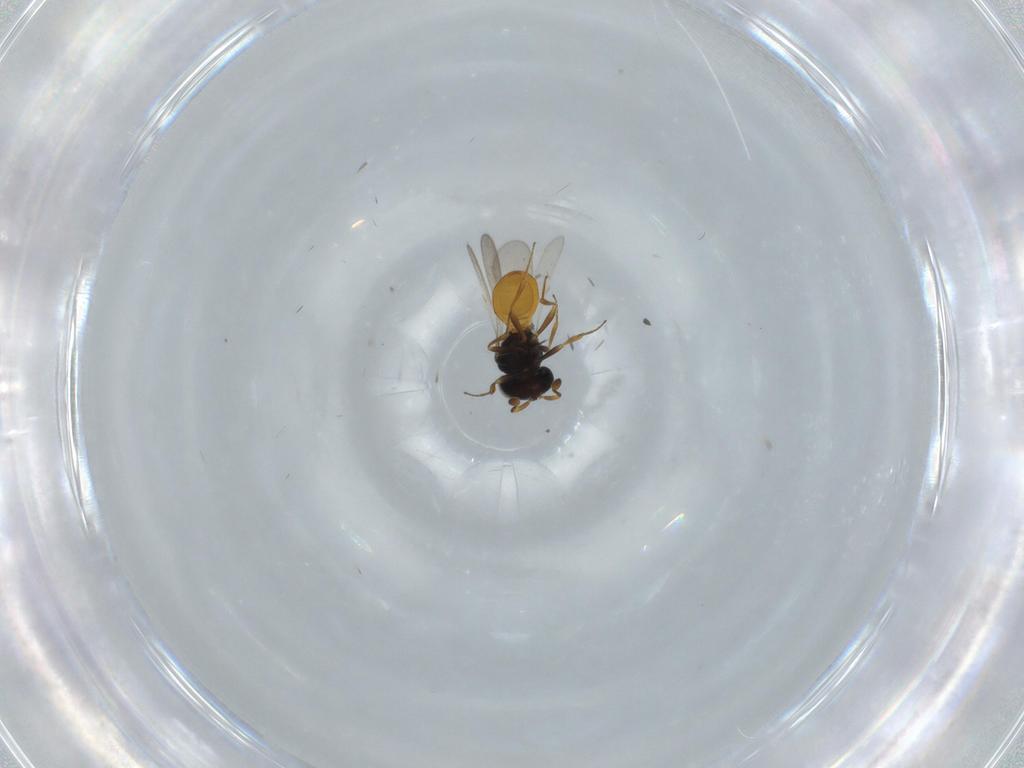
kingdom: Animalia
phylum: Arthropoda
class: Insecta
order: Hymenoptera
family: Scelionidae
